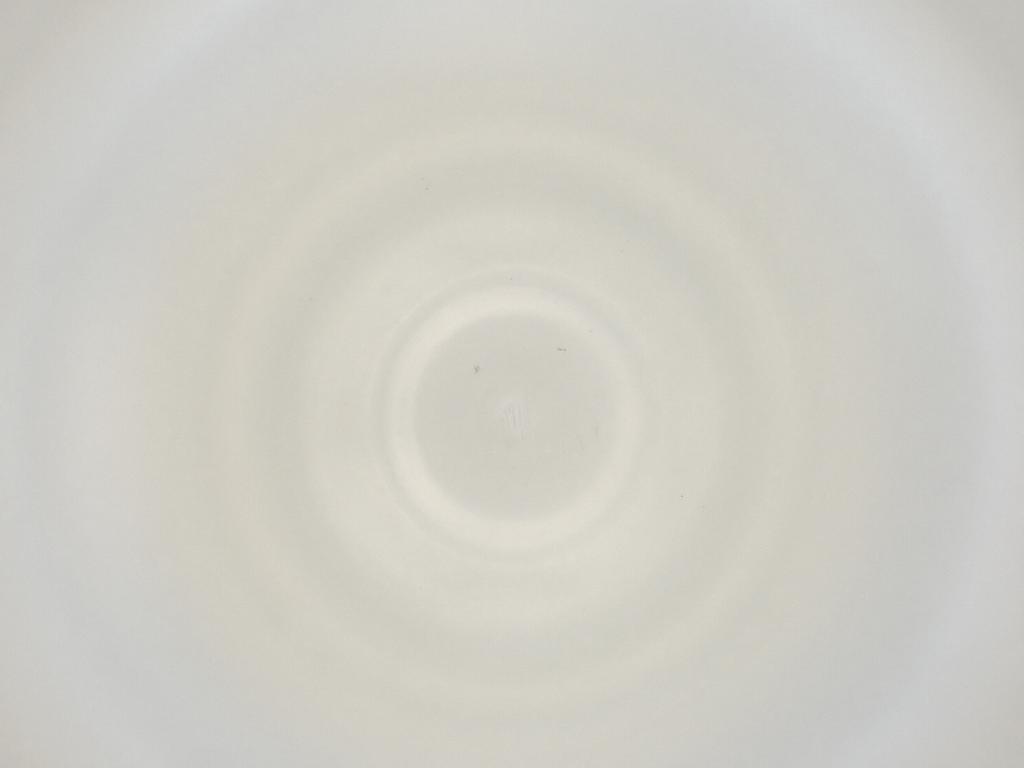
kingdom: Animalia
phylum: Arthropoda
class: Insecta
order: Diptera
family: Cecidomyiidae
